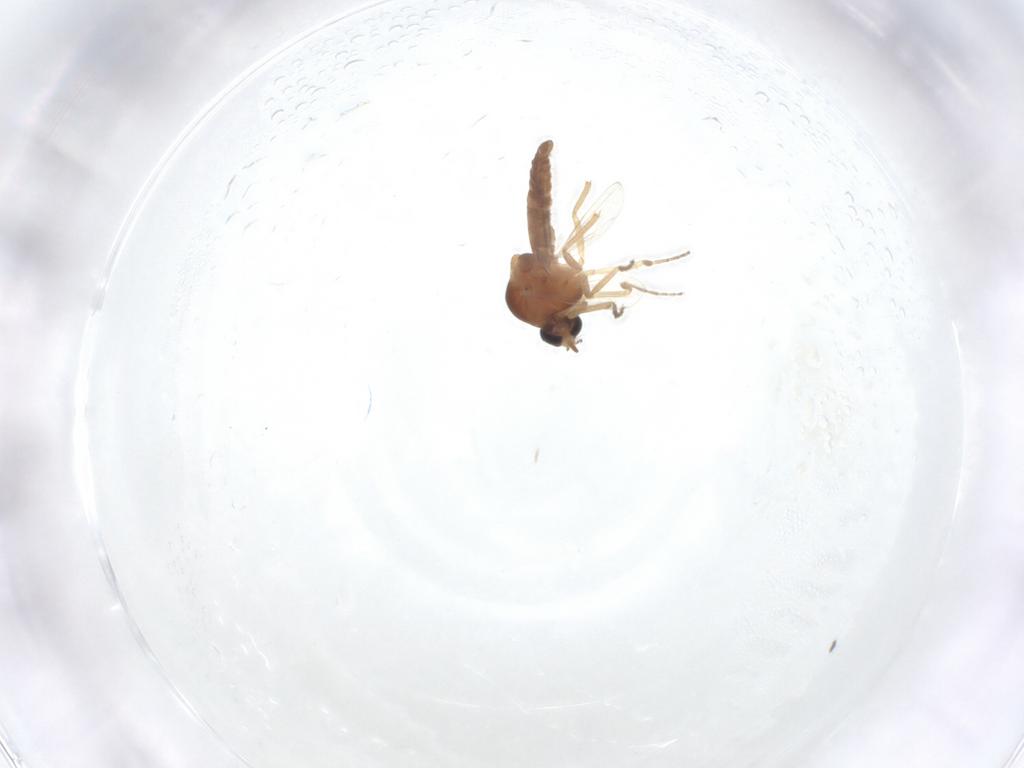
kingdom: Animalia
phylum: Arthropoda
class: Insecta
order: Diptera
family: Ceratopogonidae
